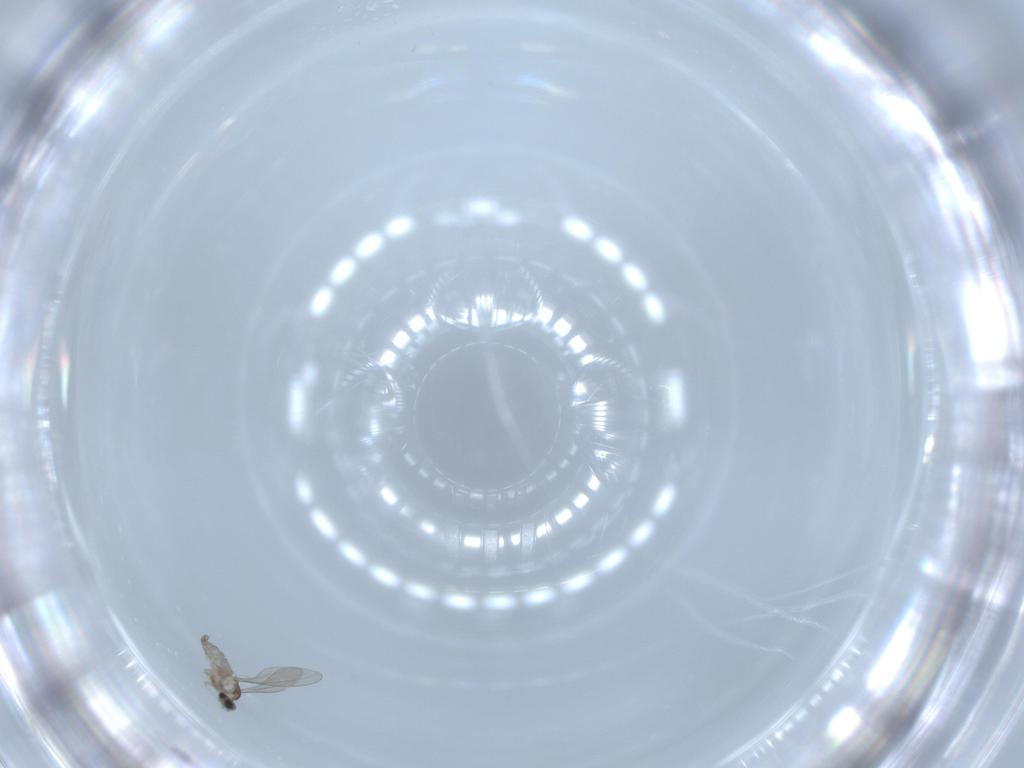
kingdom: Animalia
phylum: Arthropoda
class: Insecta
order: Diptera
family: Cecidomyiidae
